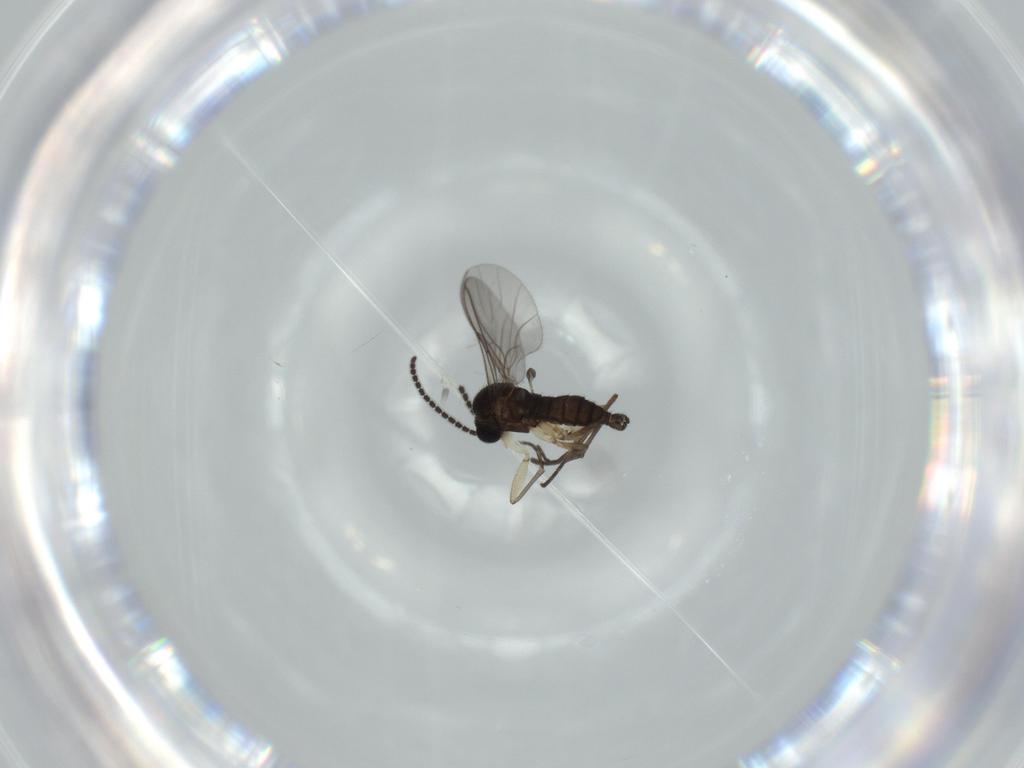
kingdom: Animalia
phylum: Arthropoda
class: Insecta
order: Diptera
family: Sciaridae
